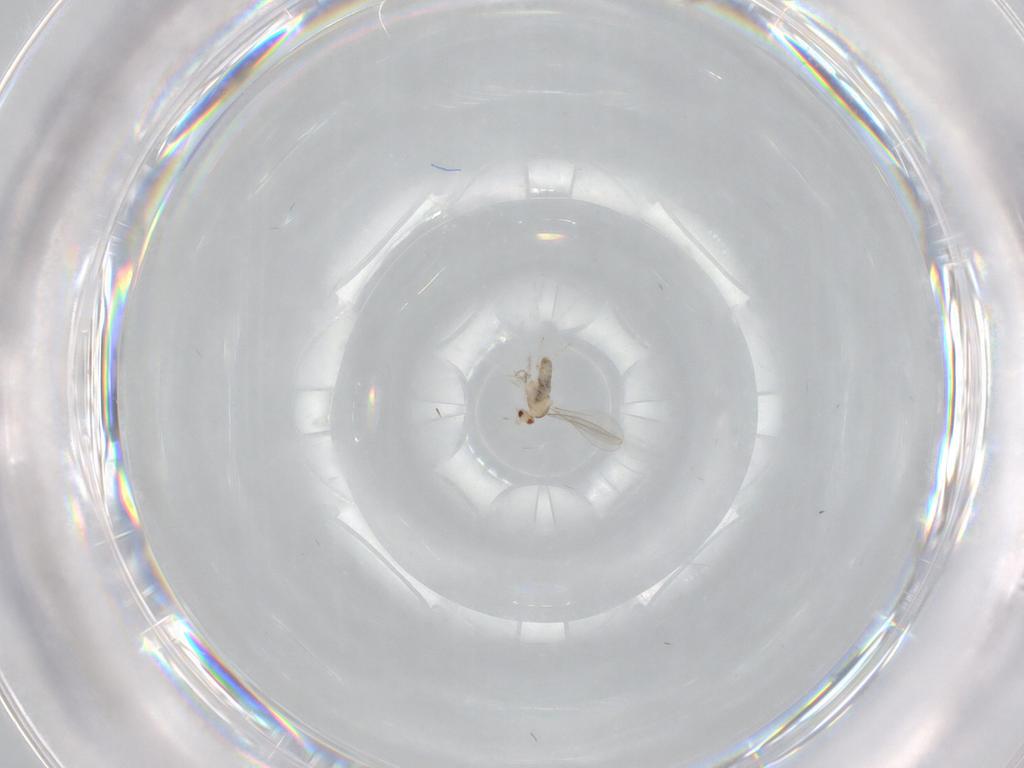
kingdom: Animalia
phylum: Arthropoda
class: Insecta
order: Diptera
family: Cecidomyiidae
